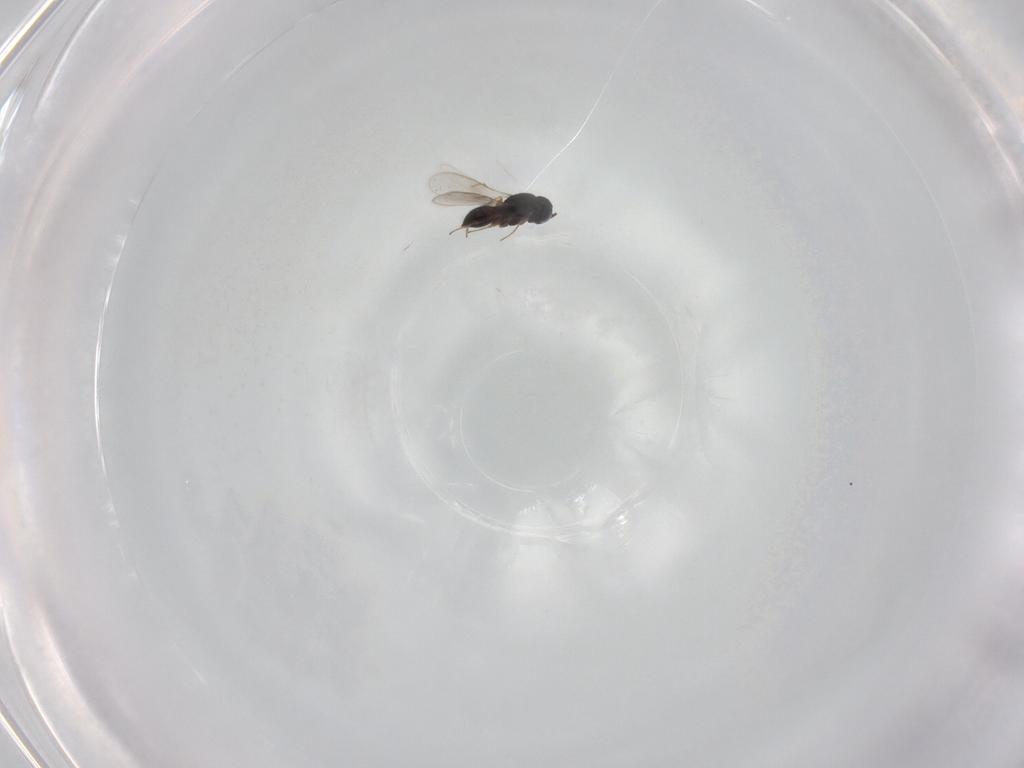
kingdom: Animalia
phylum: Arthropoda
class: Insecta
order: Hymenoptera
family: Scelionidae
